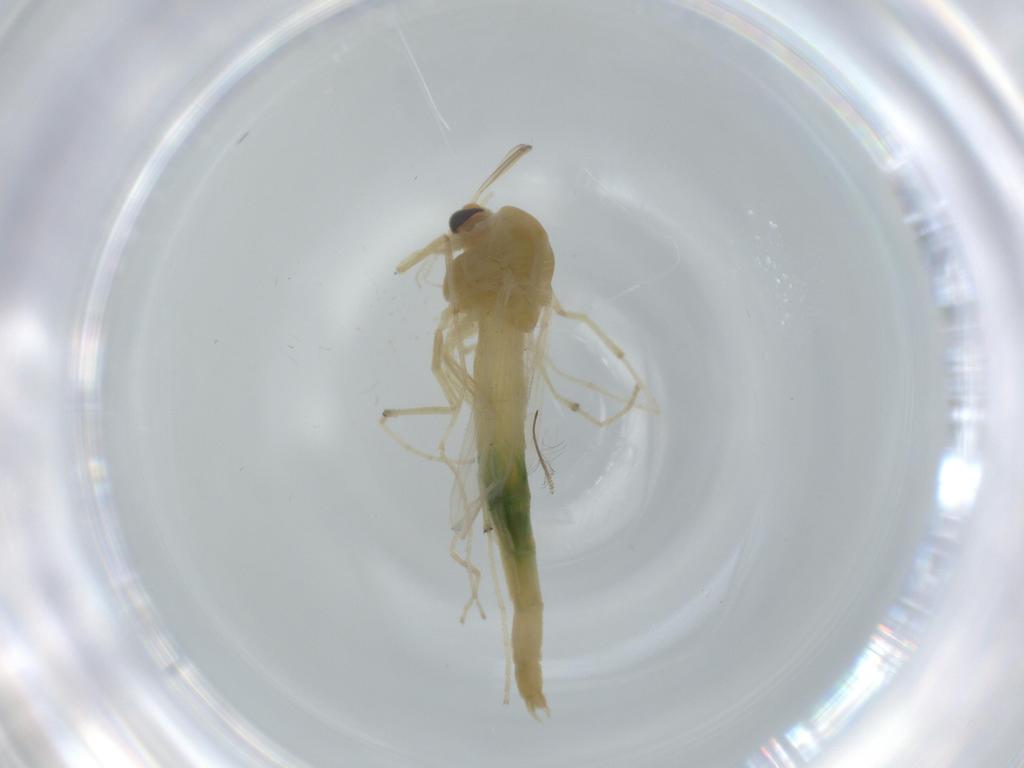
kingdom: Animalia
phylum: Arthropoda
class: Insecta
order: Diptera
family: Chironomidae
